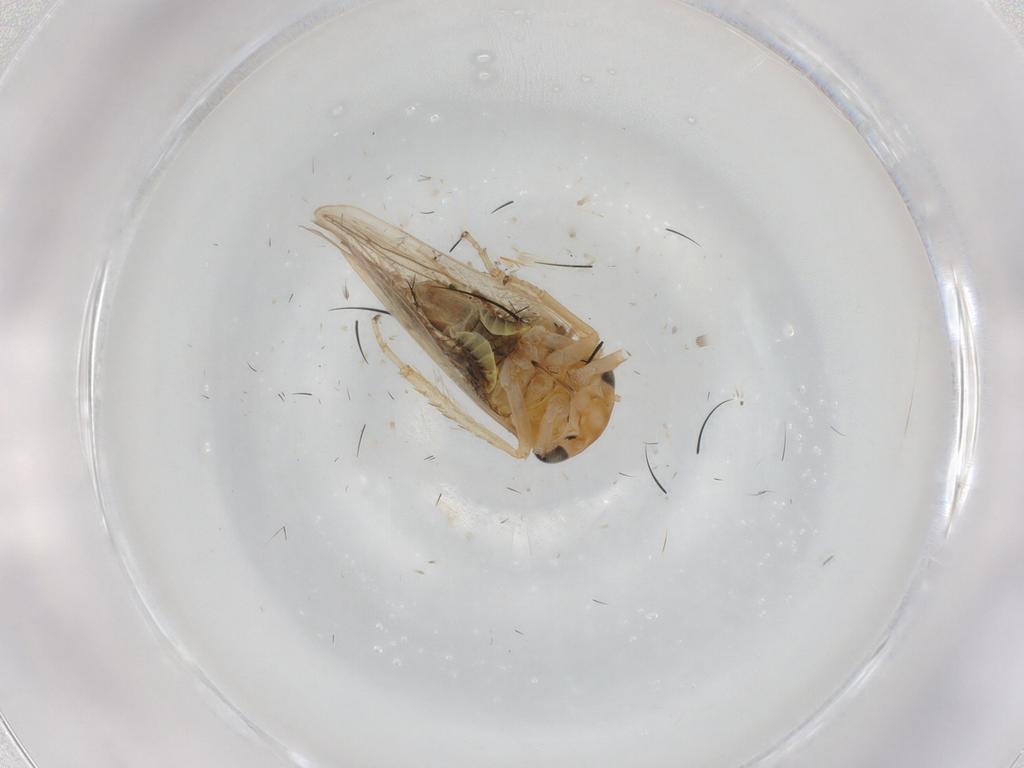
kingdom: Animalia
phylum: Arthropoda
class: Insecta
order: Hemiptera
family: Cicadellidae
